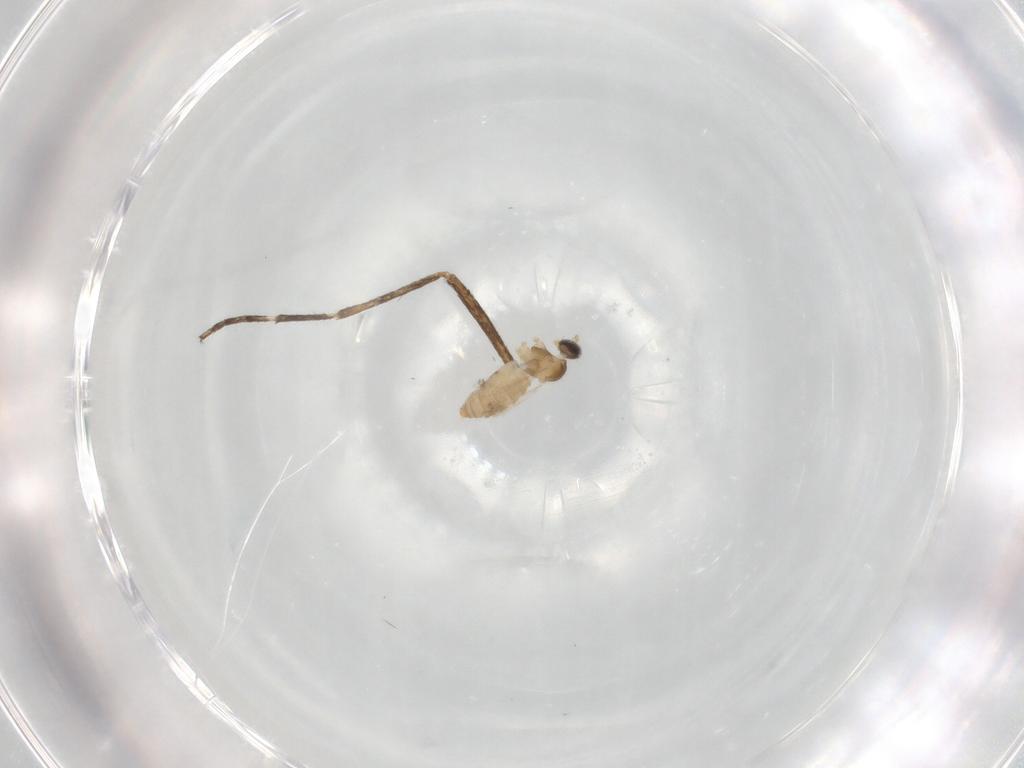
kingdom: Animalia
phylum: Arthropoda
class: Insecta
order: Diptera
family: Cecidomyiidae
